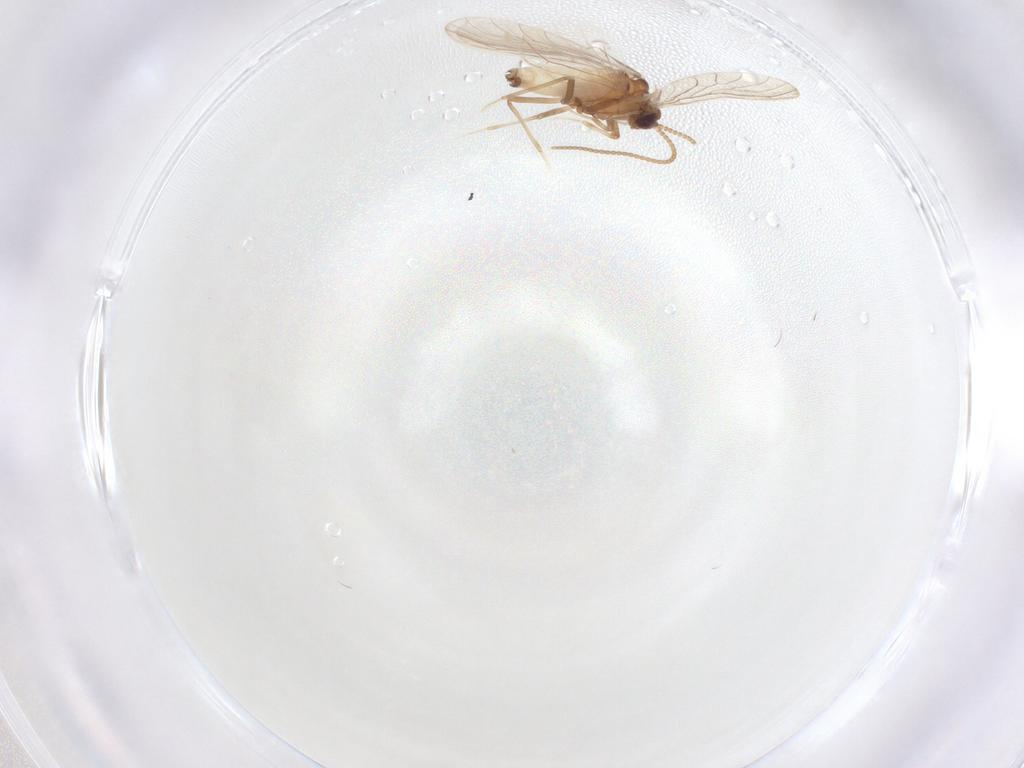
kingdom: Animalia
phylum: Arthropoda
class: Insecta
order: Neuroptera
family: Coniopterygidae
